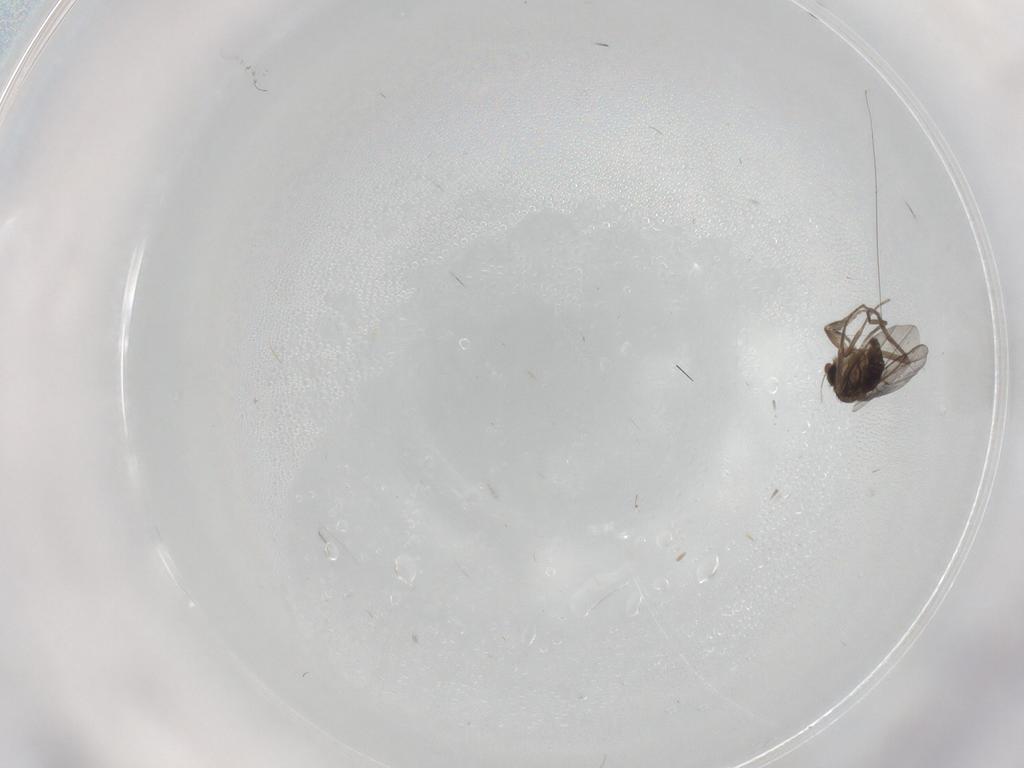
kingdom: Animalia
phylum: Arthropoda
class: Insecta
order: Diptera
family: Phoridae
